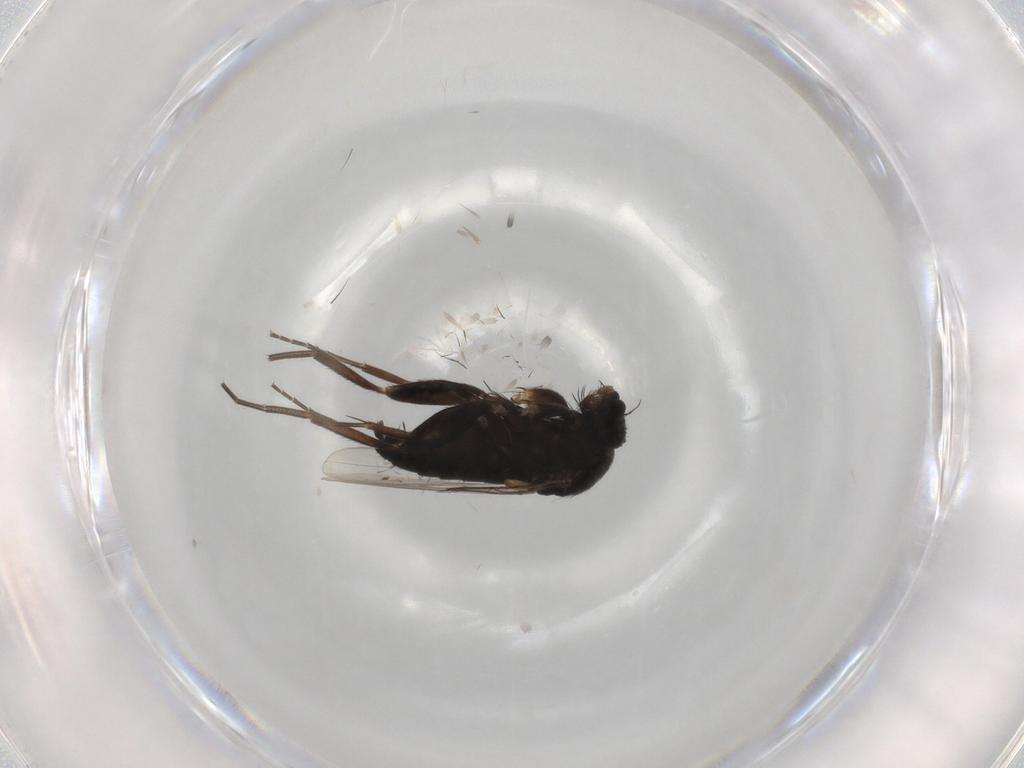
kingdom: Animalia
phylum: Arthropoda
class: Insecta
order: Diptera
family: Phoridae
